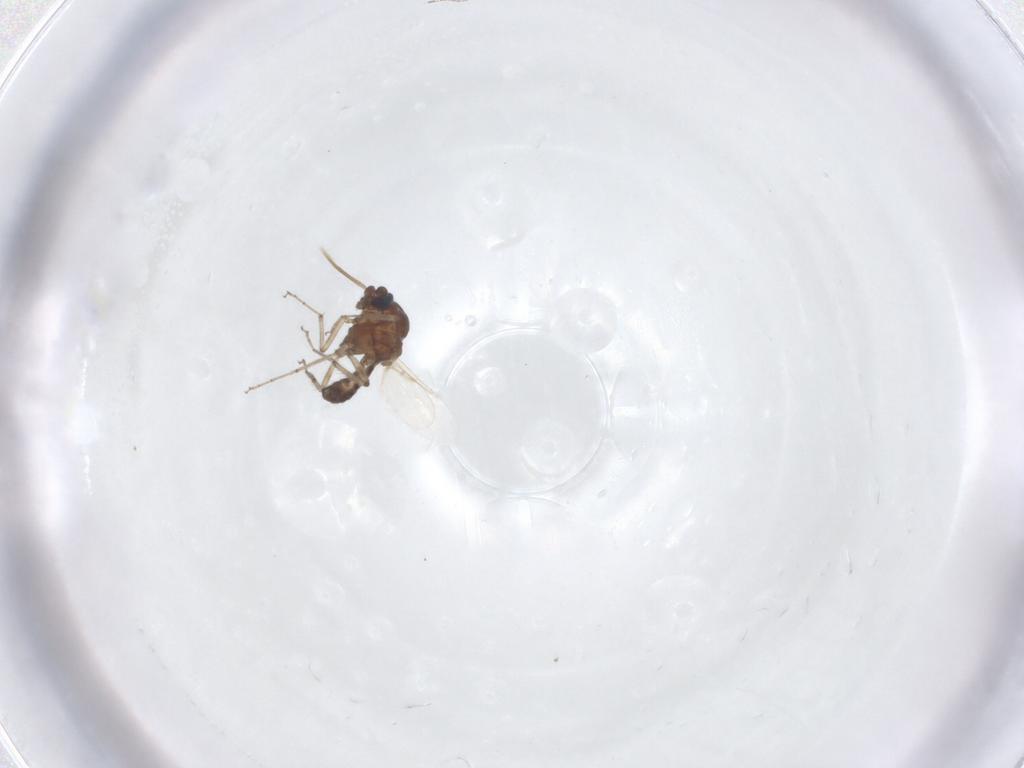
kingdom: Animalia
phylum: Arthropoda
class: Insecta
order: Diptera
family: Ceratopogonidae
